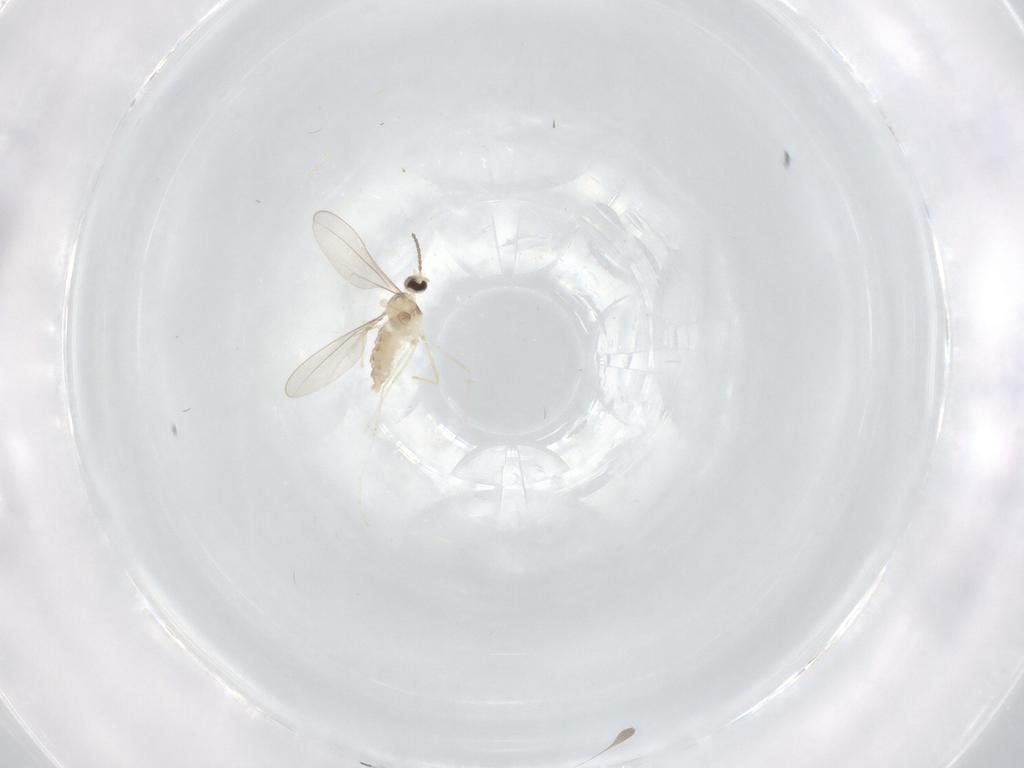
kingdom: Animalia
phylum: Arthropoda
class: Insecta
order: Diptera
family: Cecidomyiidae
